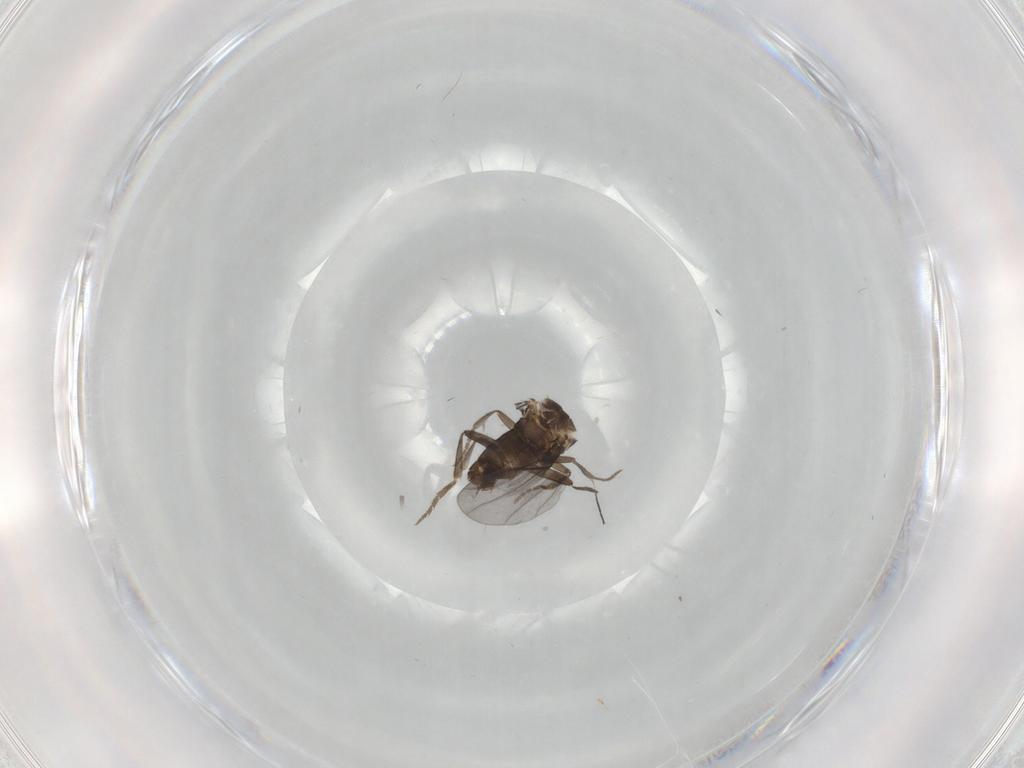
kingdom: Animalia
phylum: Arthropoda
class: Insecta
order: Diptera
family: Phoridae
